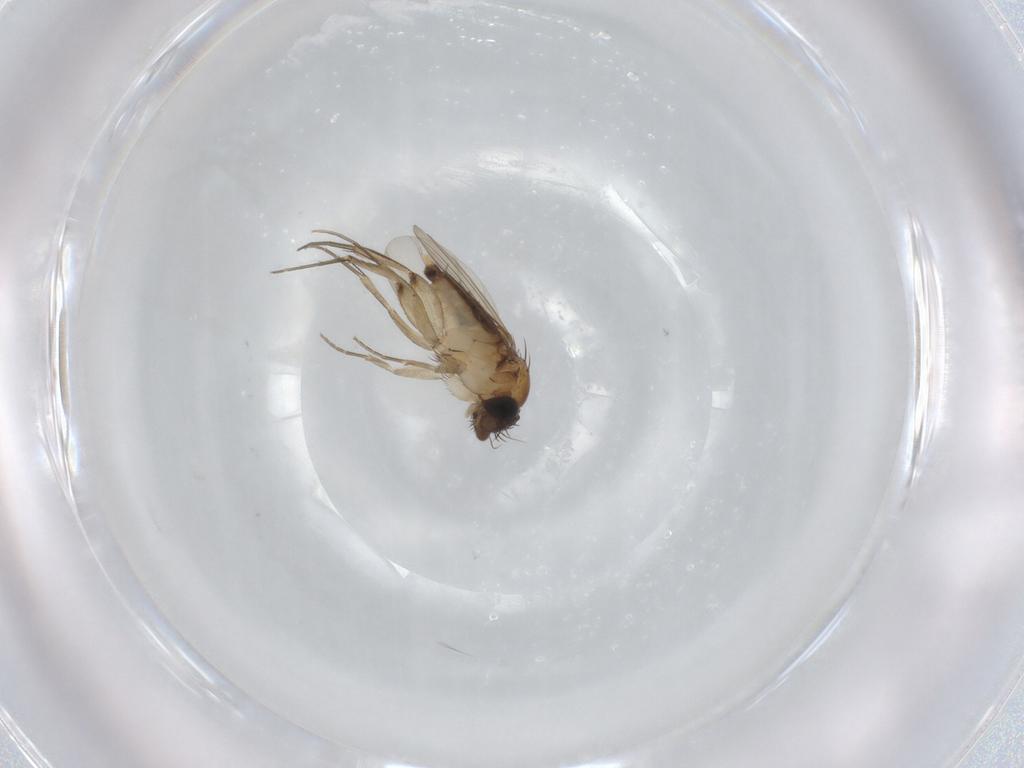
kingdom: Animalia
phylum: Arthropoda
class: Insecta
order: Diptera
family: Phoridae
